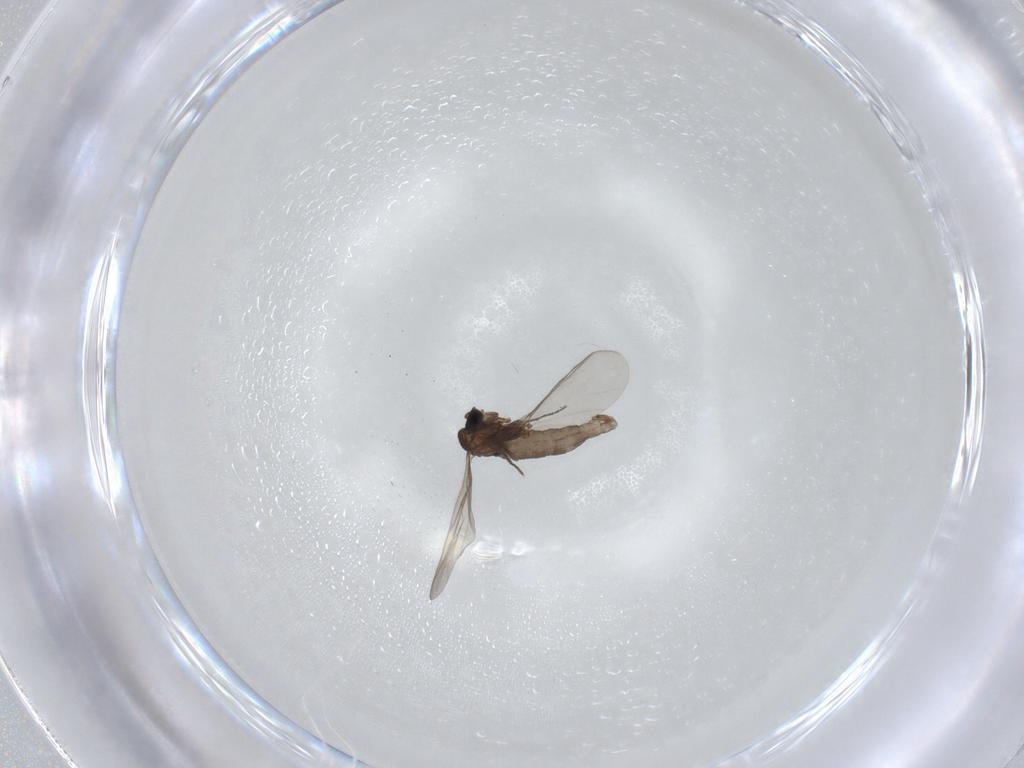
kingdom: Animalia
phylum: Arthropoda
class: Insecta
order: Diptera
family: Sciaridae
